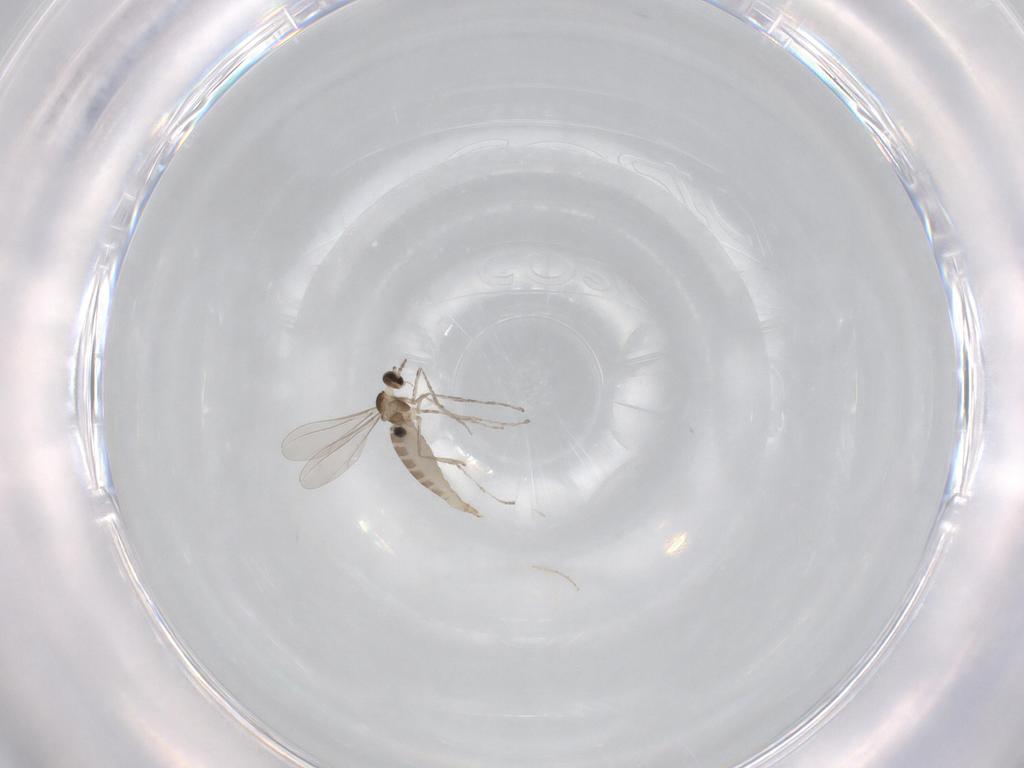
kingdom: Animalia
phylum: Arthropoda
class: Insecta
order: Diptera
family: Chironomidae
